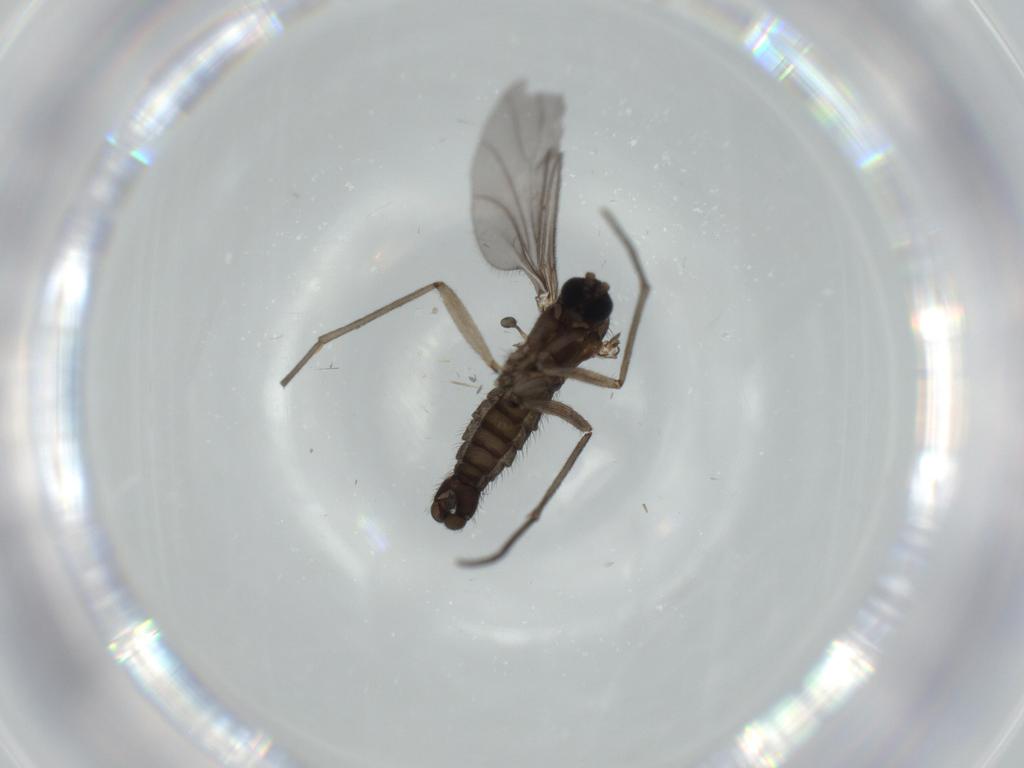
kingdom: Animalia
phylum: Arthropoda
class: Insecta
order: Diptera
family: Sciaridae
